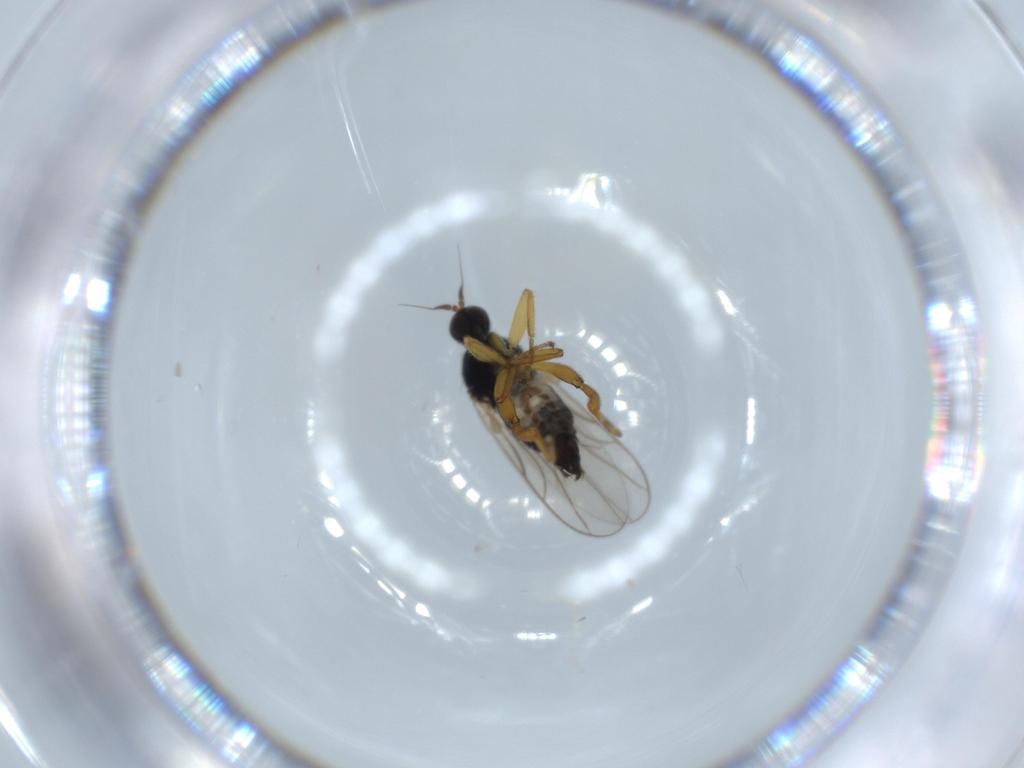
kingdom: Animalia
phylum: Arthropoda
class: Insecta
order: Diptera
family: Hybotidae
